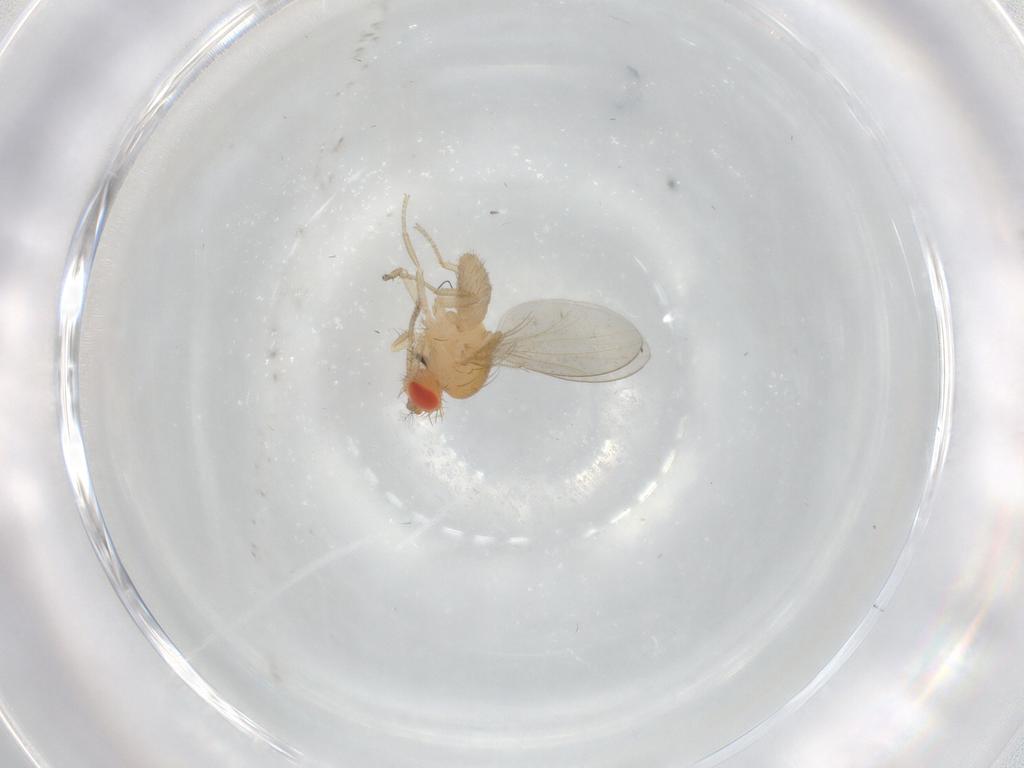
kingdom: Animalia
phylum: Arthropoda
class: Insecta
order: Diptera
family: Drosophilidae
